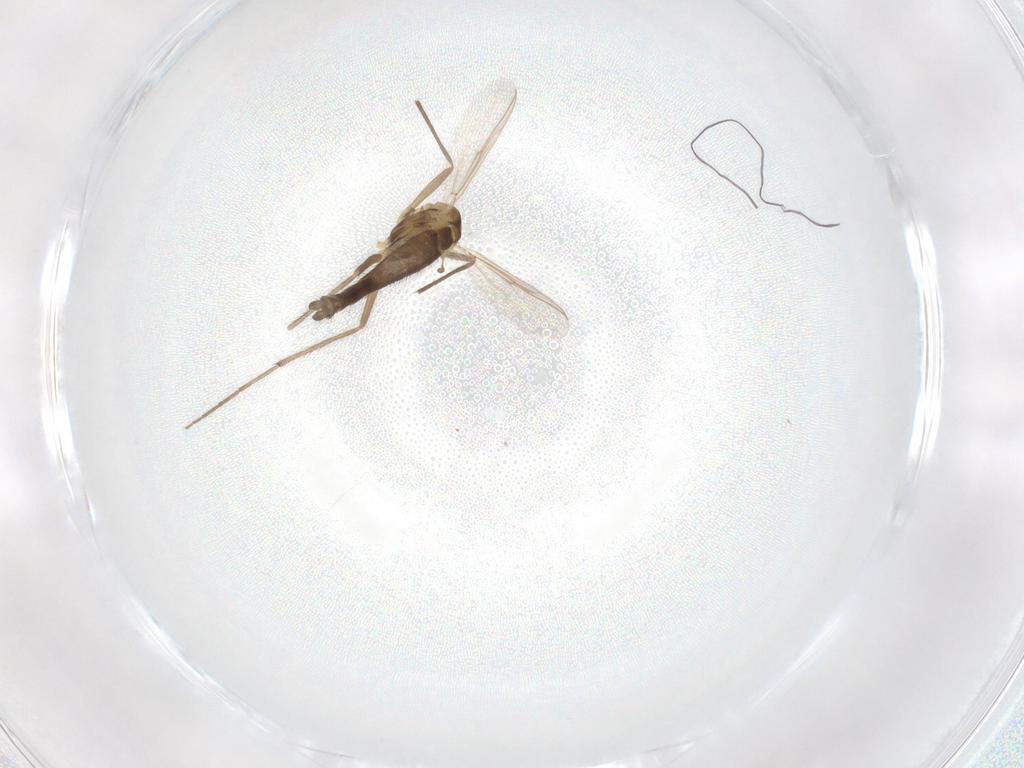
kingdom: Animalia
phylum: Arthropoda
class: Insecta
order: Diptera
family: Chironomidae
